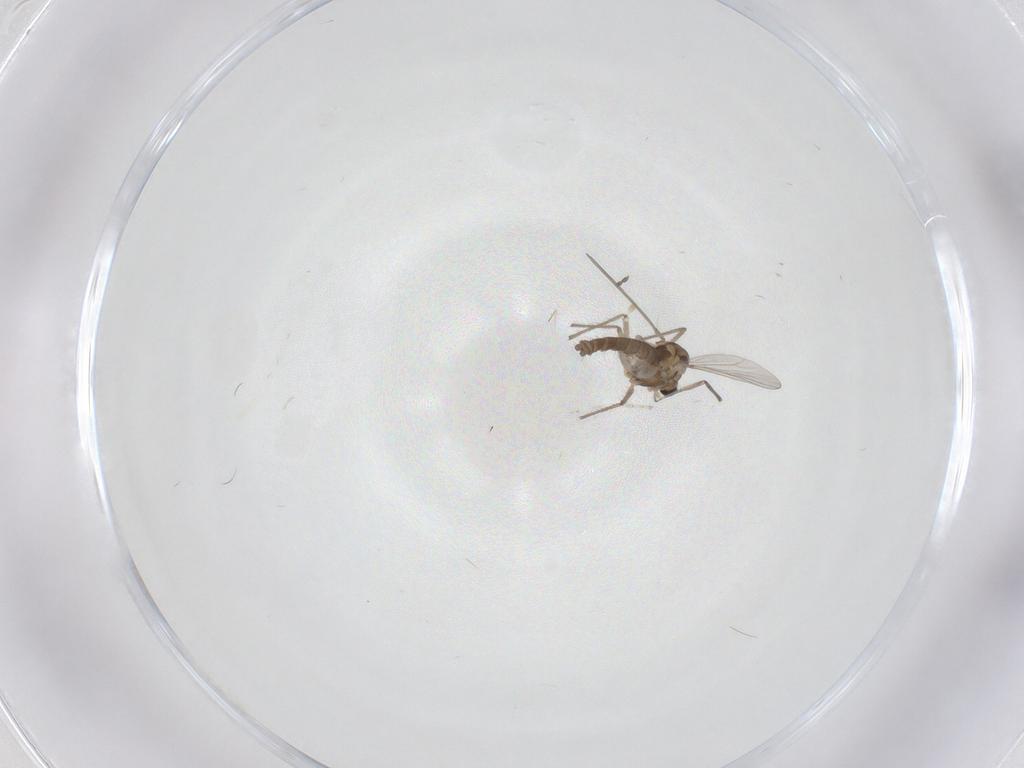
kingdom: Animalia
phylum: Arthropoda
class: Insecta
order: Diptera
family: Chironomidae
